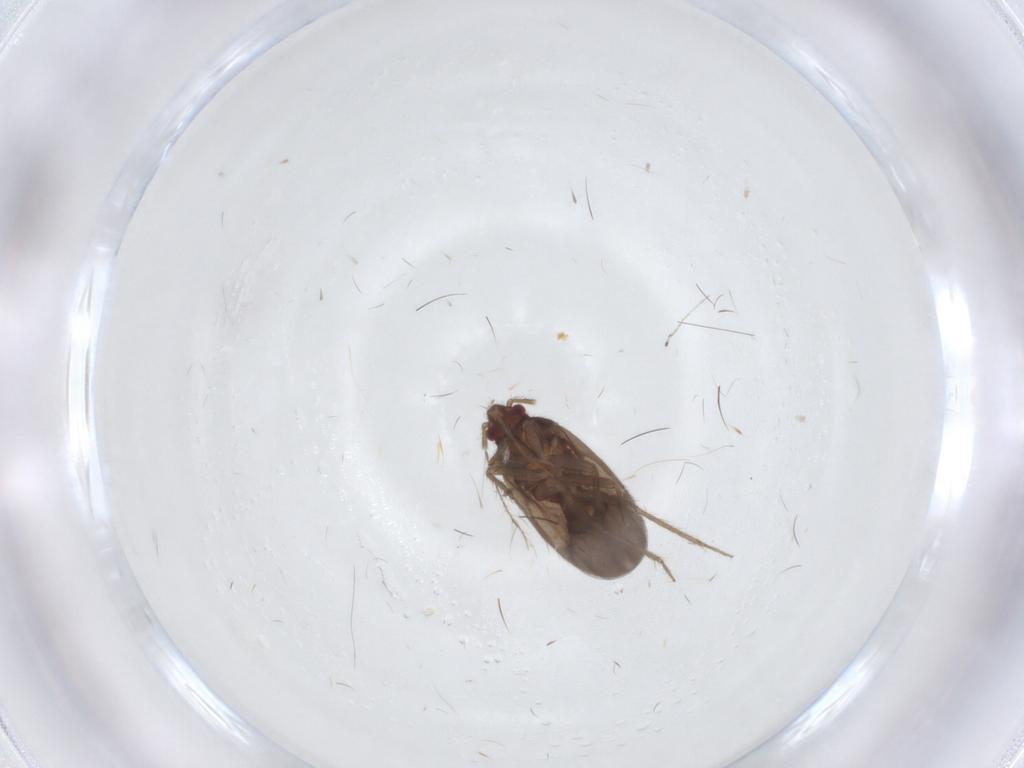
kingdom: Animalia
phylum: Arthropoda
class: Insecta
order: Hemiptera
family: Ceratocombidae
